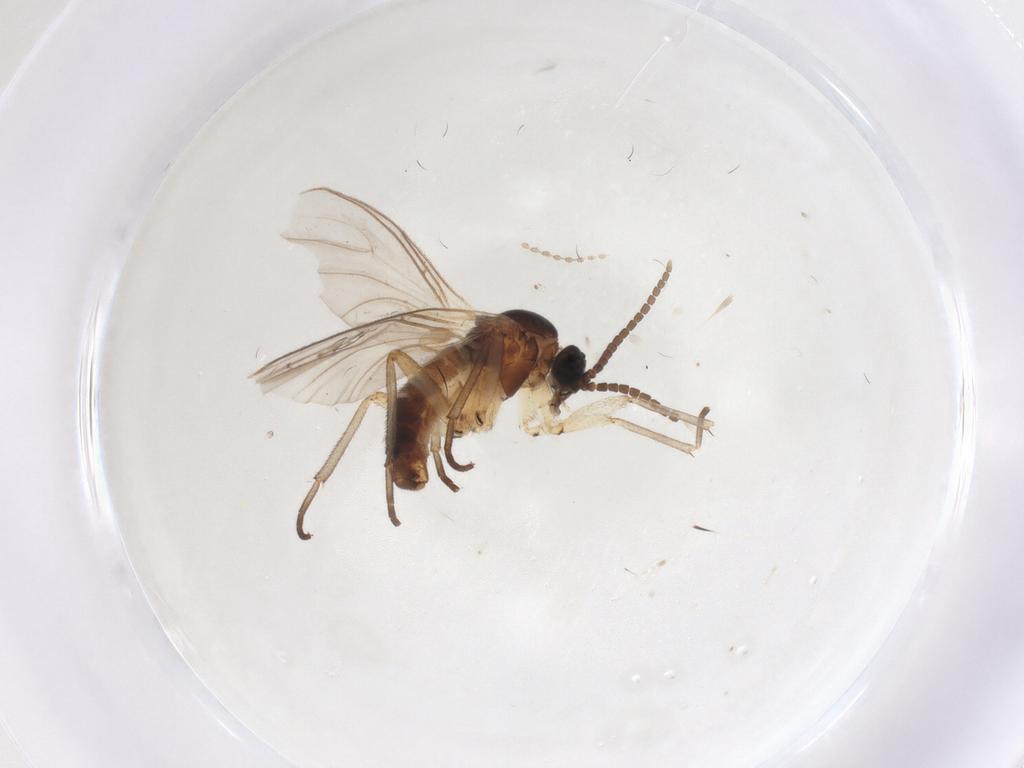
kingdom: Animalia
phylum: Arthropoda
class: Insecta
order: Diptera
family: Sciaridae
